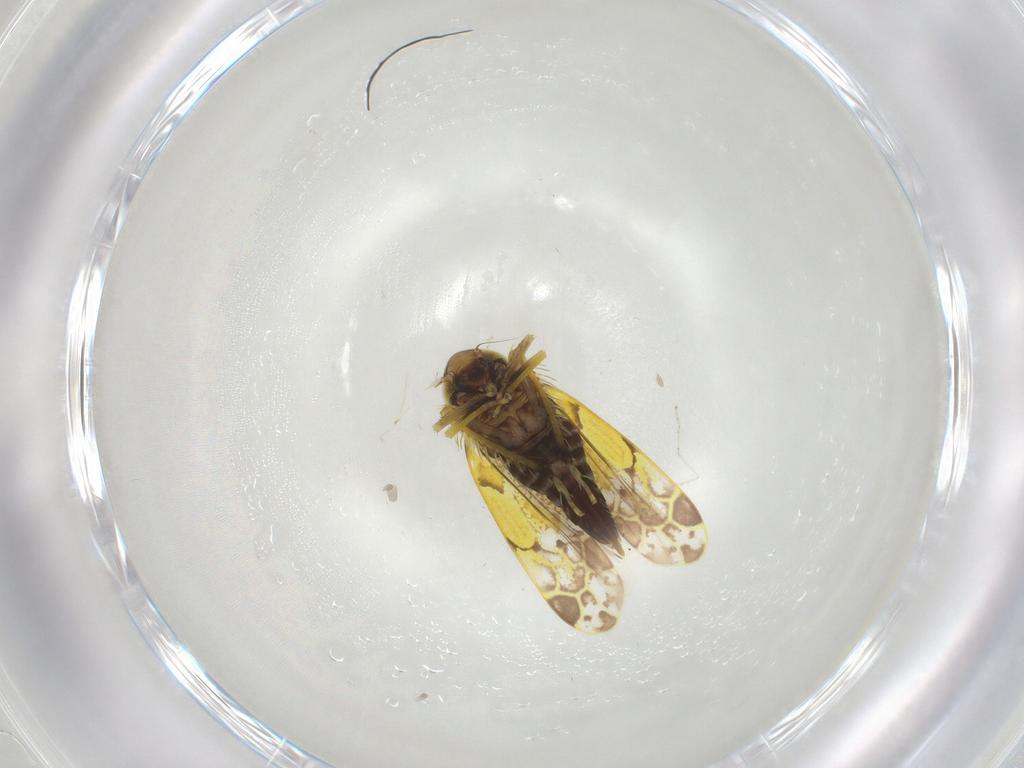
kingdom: Animalia
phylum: Arthropoda
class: Insecta
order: Hemiptera
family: Cicadellidae
